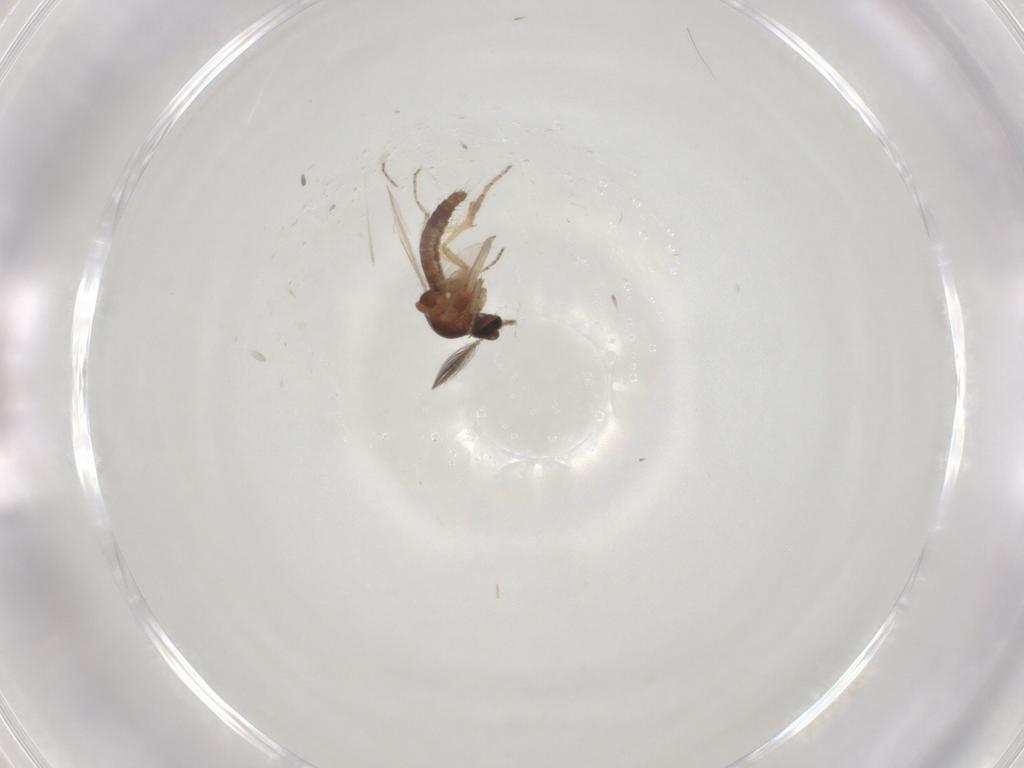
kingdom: Animalia
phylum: Arthropoda
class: Insecta
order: Diptera
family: Ceratopogonidae
